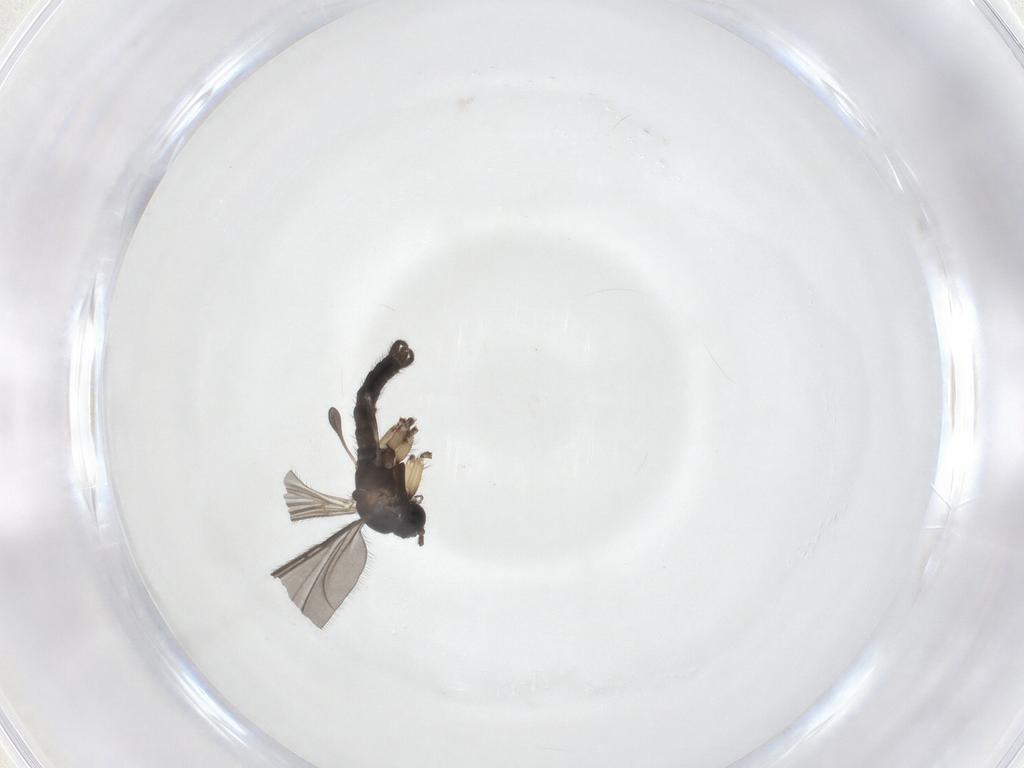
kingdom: Animalia
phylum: Arthropoda
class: Insecta
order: Diptera
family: Sciaridae
